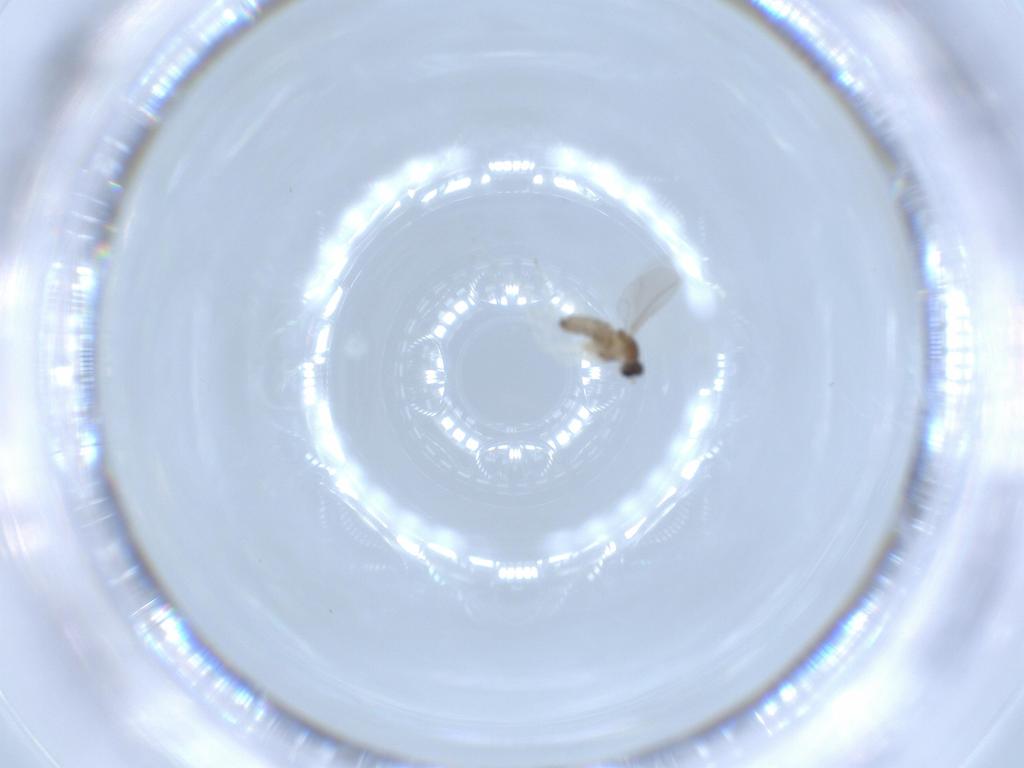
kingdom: Animalia
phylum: Arthropoda
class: Insecta
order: Diptera
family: Cecidomyiidae
